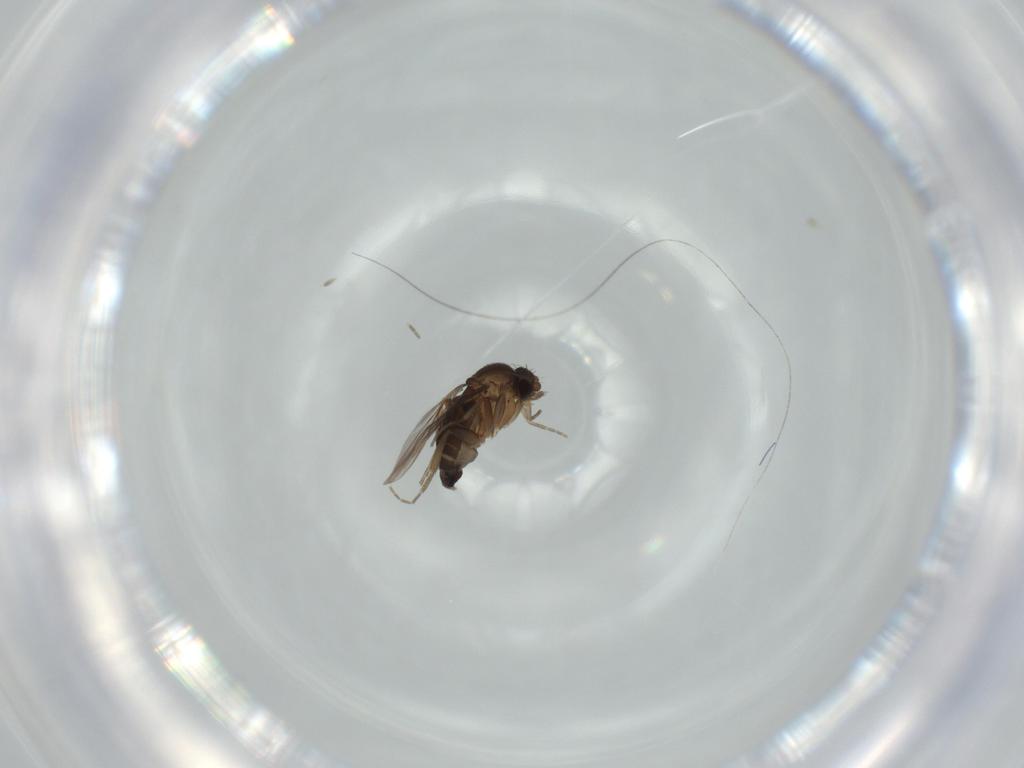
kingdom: Animalia
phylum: Arthropoda
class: Insecta
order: Diptera
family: Phoridae
